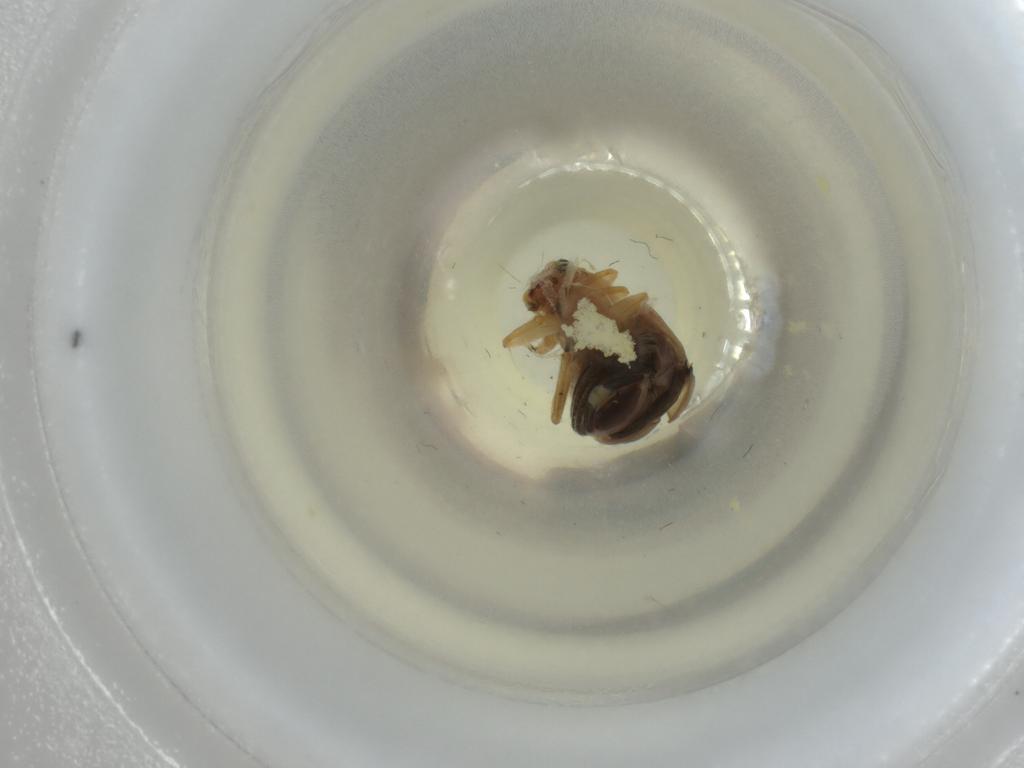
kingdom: Animalia
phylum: Arthropoda
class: Insecta
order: Coleoptera
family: Chrysomelidae
